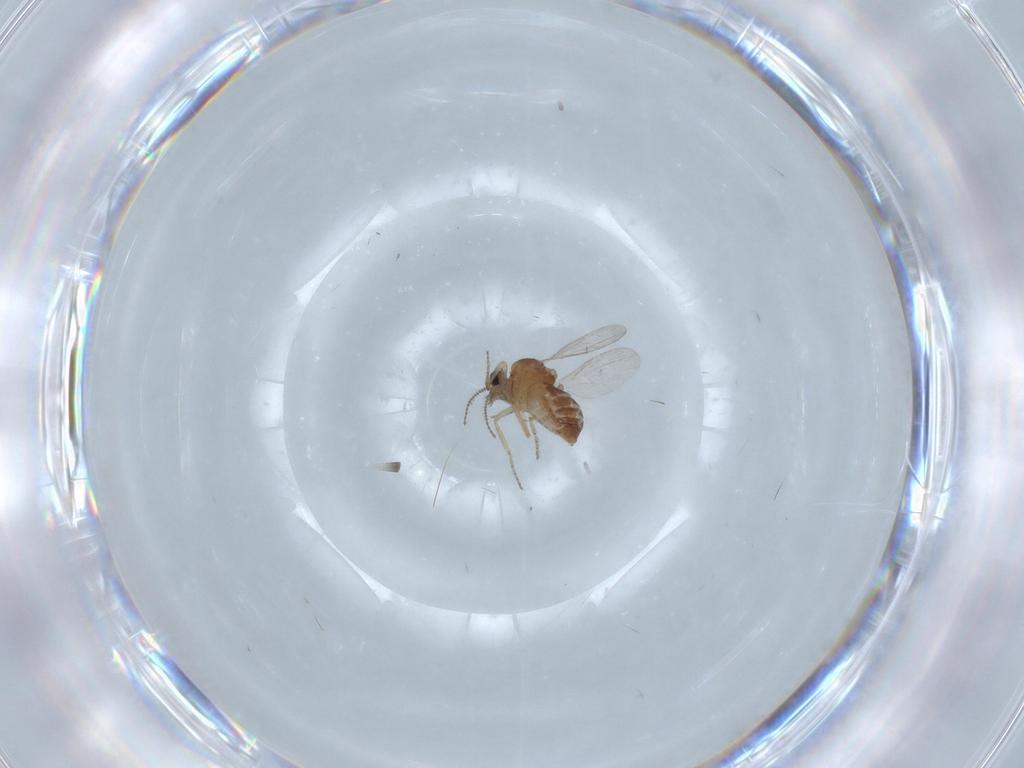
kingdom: Animalia
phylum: Arthropoda
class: Insecta
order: Diptera
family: Ceratopogonidae
